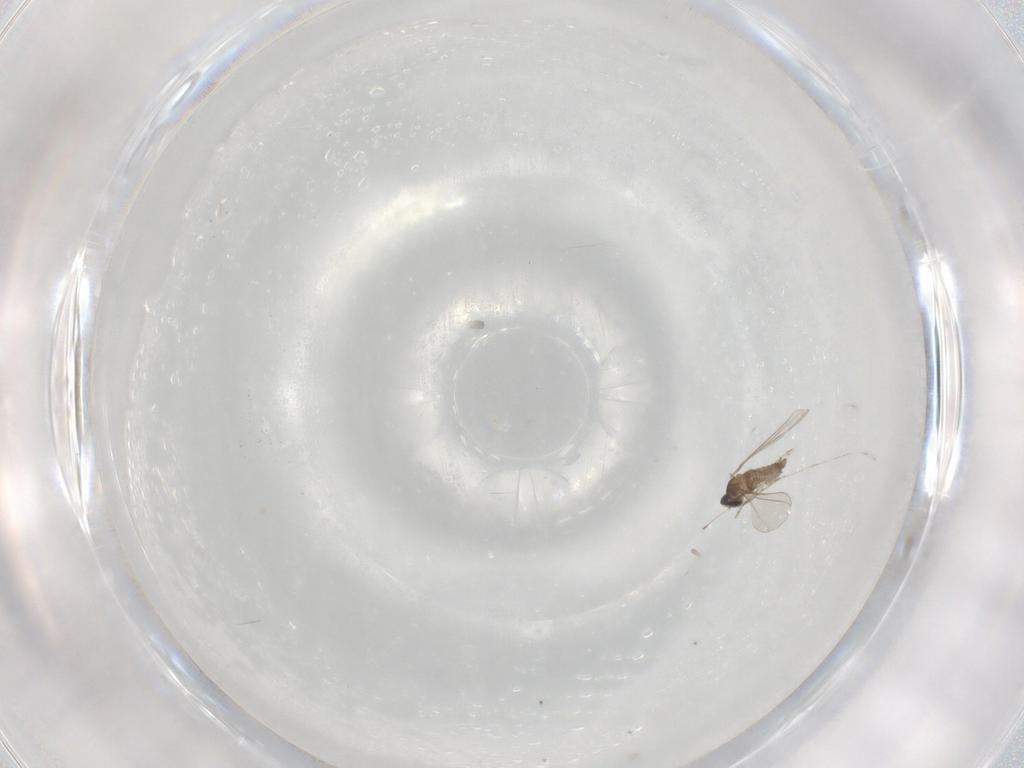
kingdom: Animalia
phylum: Arthropoda
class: Insecta
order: Diptera
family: Cecidomyiidae
